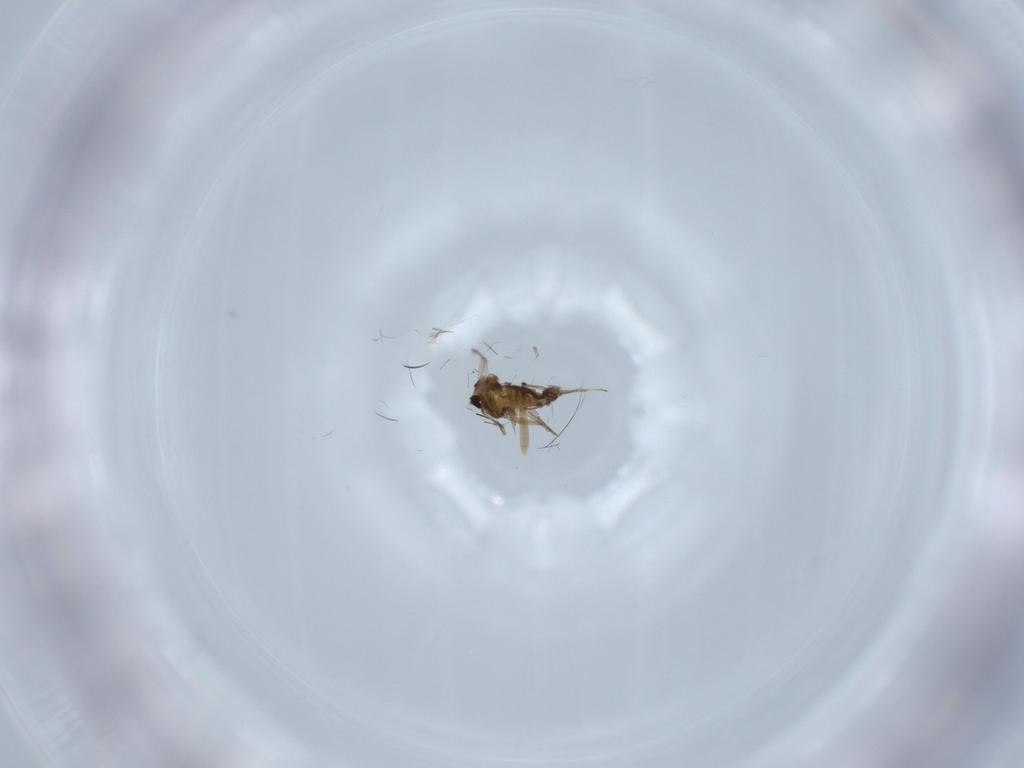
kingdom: Animalia
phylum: Arthropoda
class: Insecta
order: Diptera
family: Chironomidae
